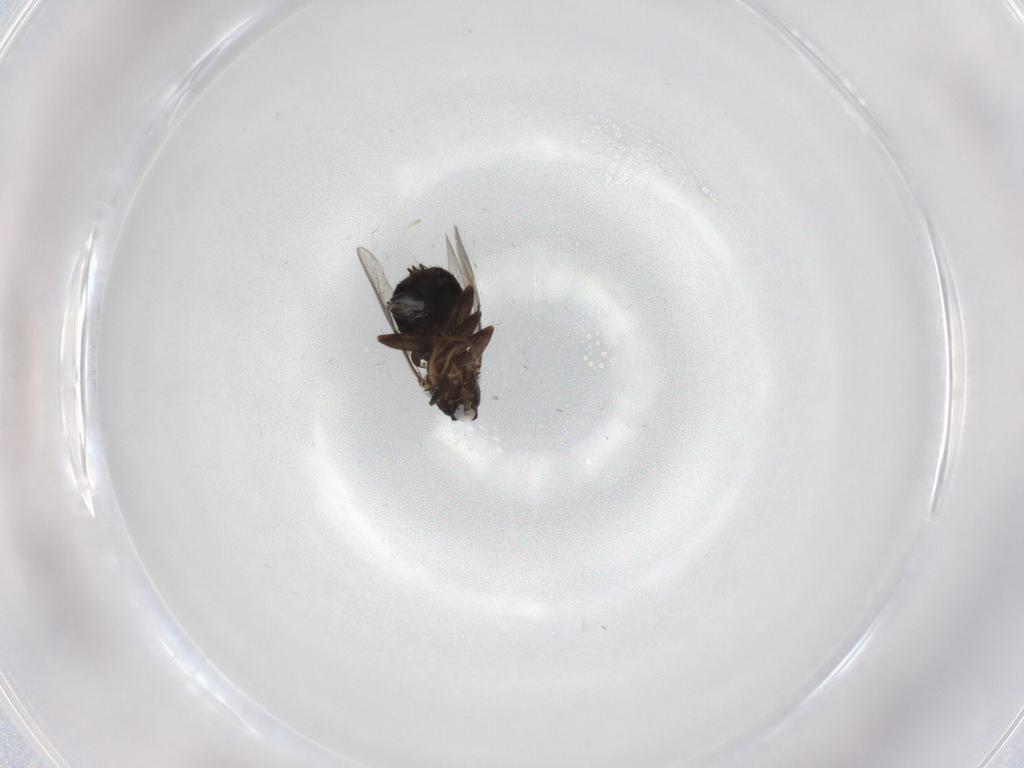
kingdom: Animalia
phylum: Arthropoda
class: Insecta
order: Diptera
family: Scatopsidae
